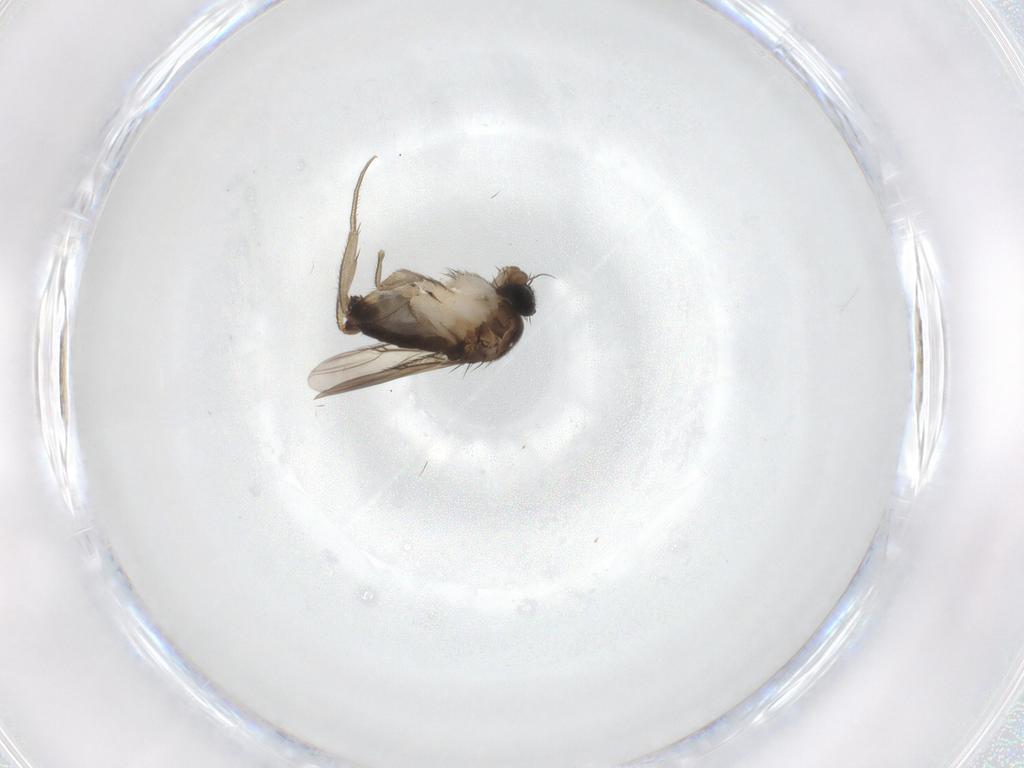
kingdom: Animalia
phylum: Arthropoda
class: Insecta
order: Diptera
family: Phoridae
